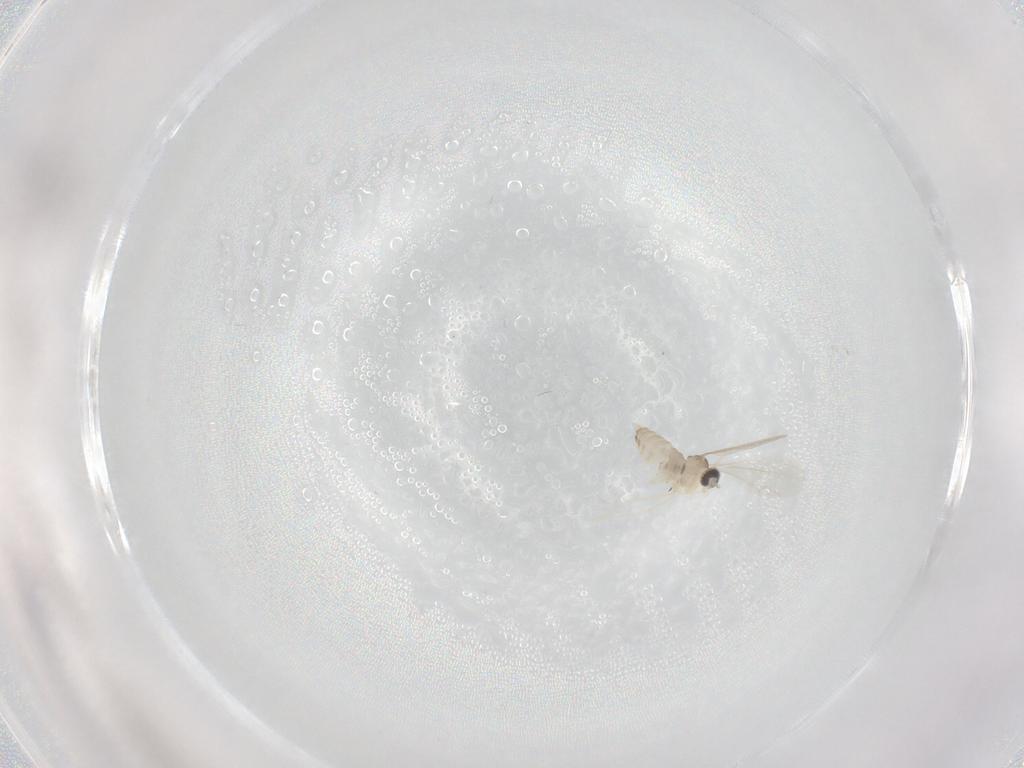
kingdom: Animalia
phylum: Arthropoda
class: Insecta
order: Diptera
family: Cecidomyiidae
